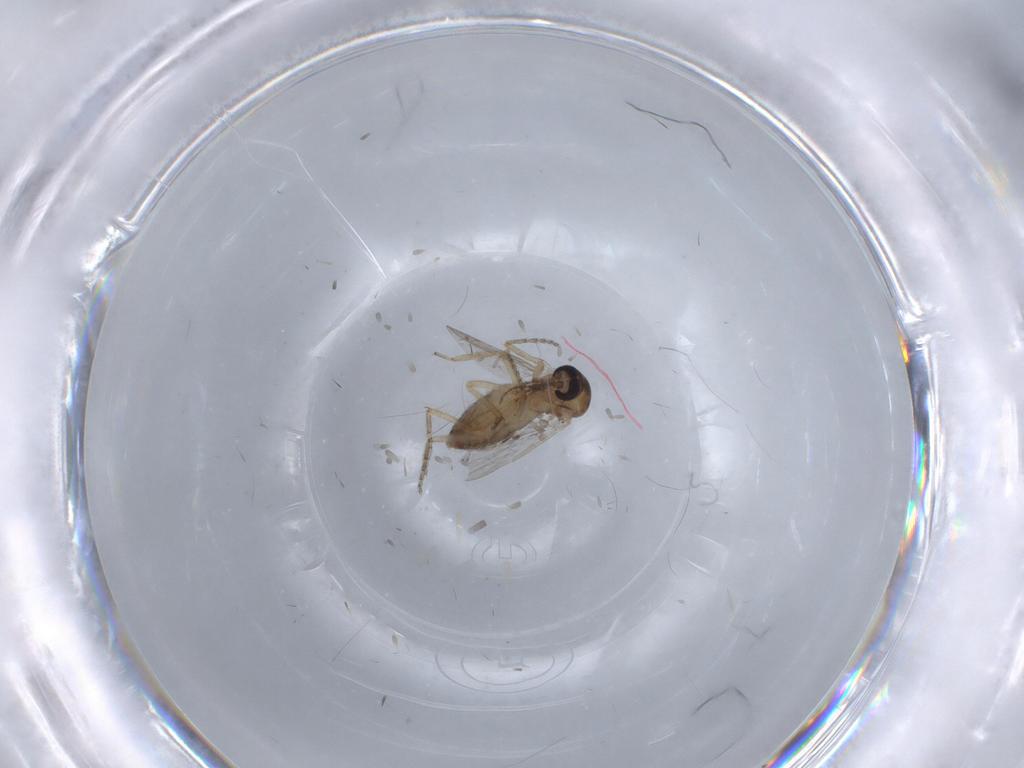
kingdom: Animalia
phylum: Arthropoda
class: Insecta
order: Diptera
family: Ceratopogonidae
